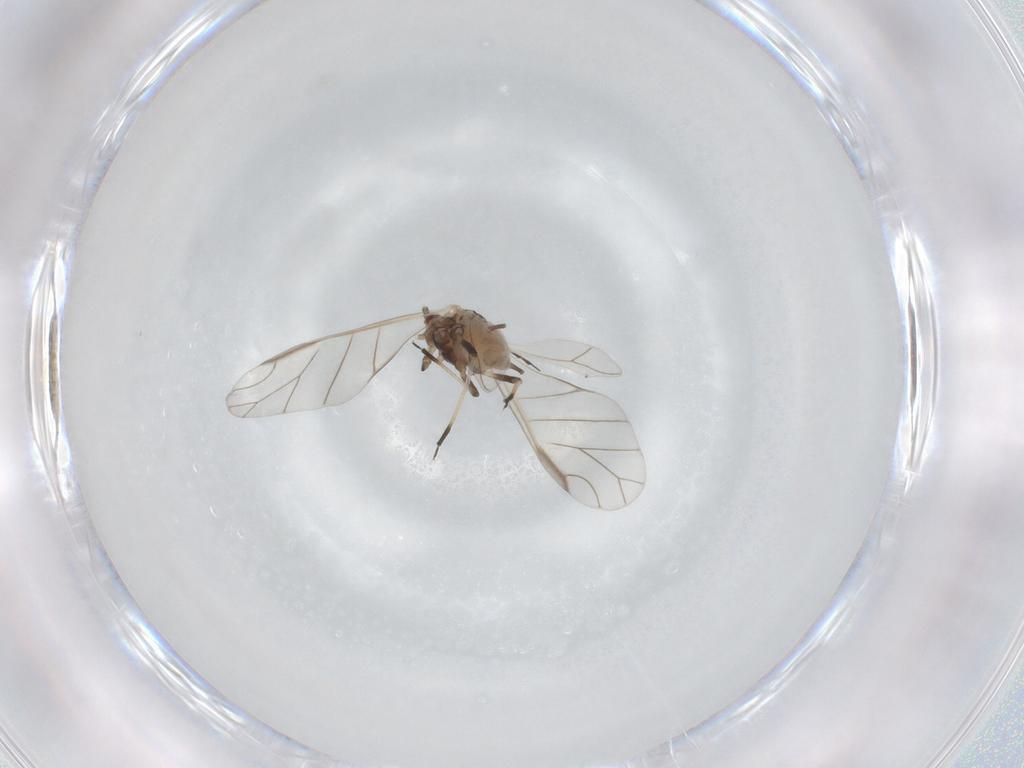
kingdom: Animalia
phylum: Arthropoda
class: Insecta
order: Hemiptera
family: Aphididae
